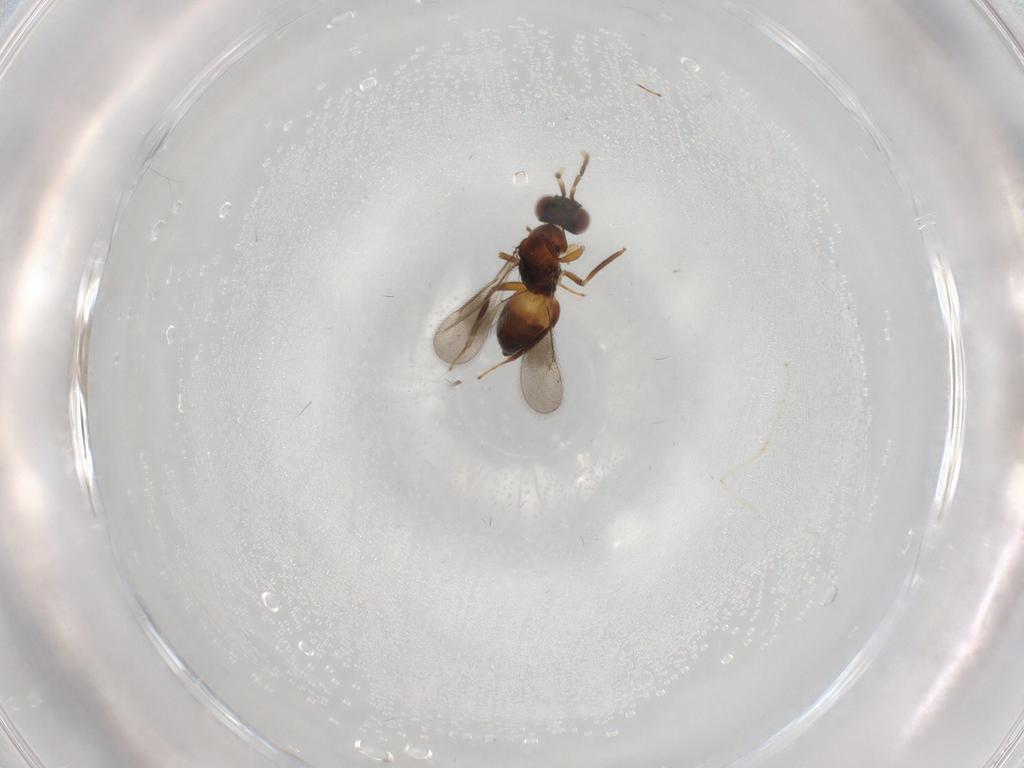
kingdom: Animalia
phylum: Arthropoda
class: Insecta
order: Hymenoptera
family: Eulophidae
